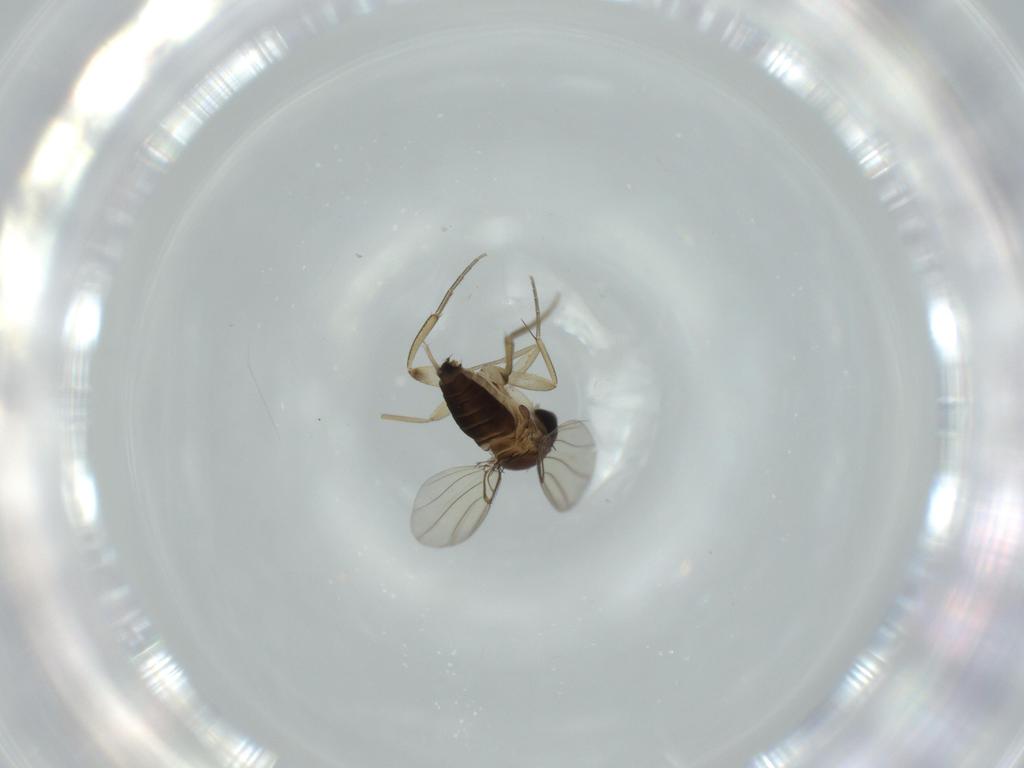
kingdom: Animalia
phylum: Arthropoda
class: Insecta
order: Diptera
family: Phoridae
